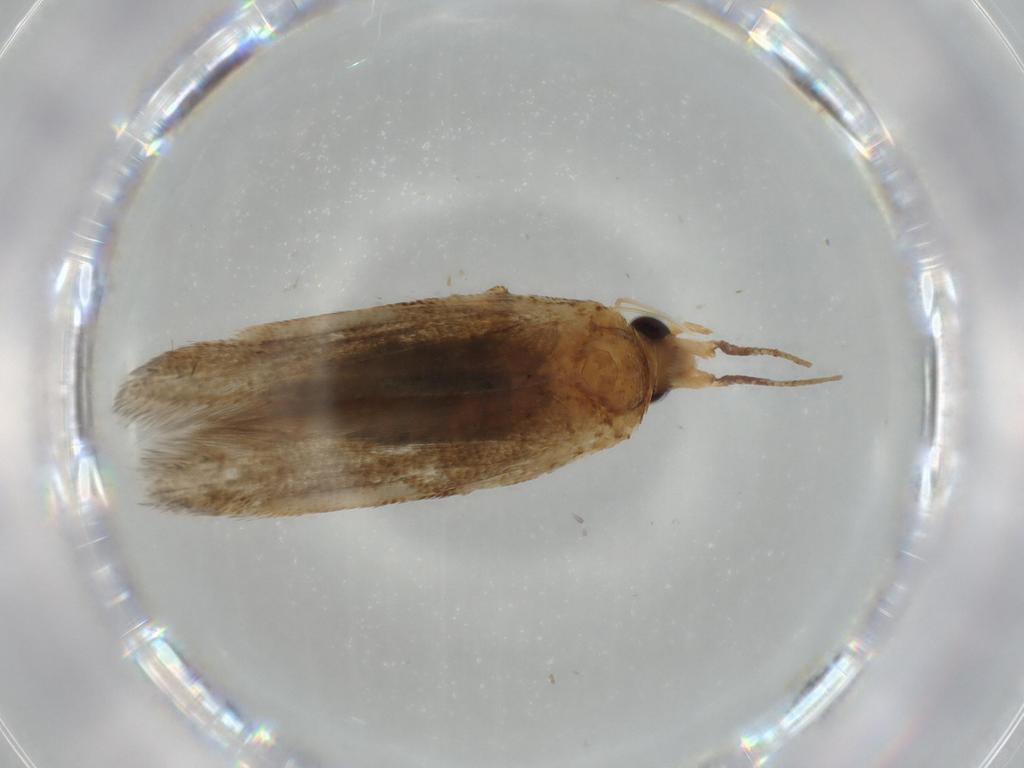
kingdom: Animalia
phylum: Arthropoda
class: Insecta
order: Lepidoptera
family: Blastobasidae
